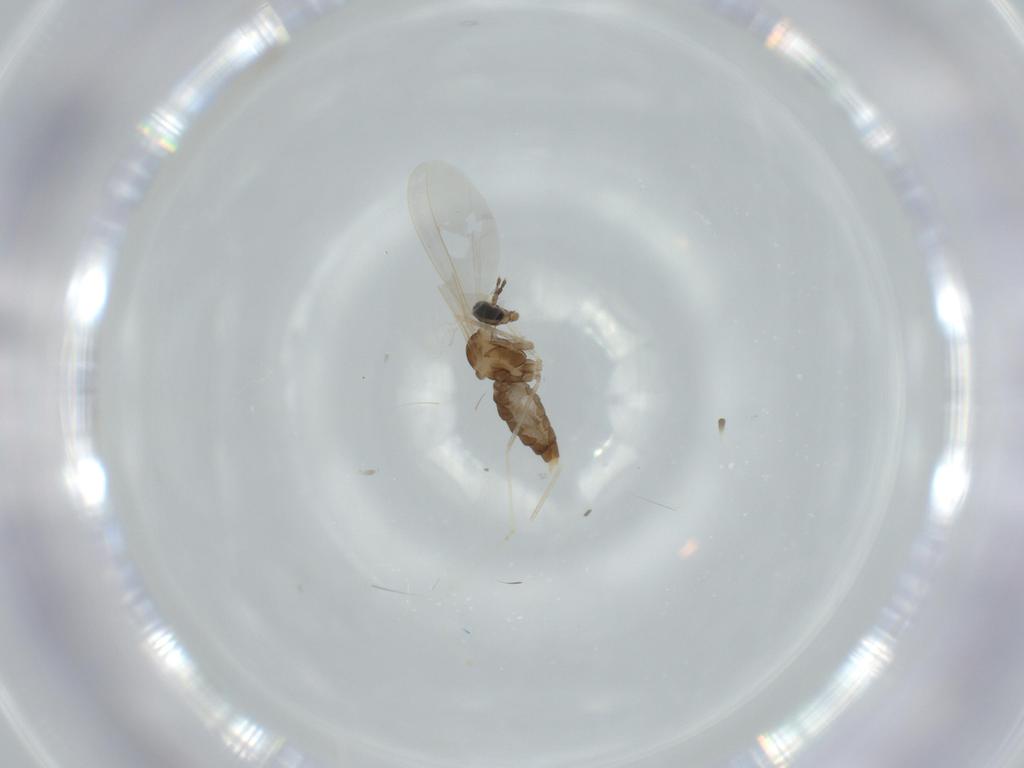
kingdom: Animalia
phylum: Arthropoda
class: Insecta
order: Diptera
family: Cecidomyiidae
